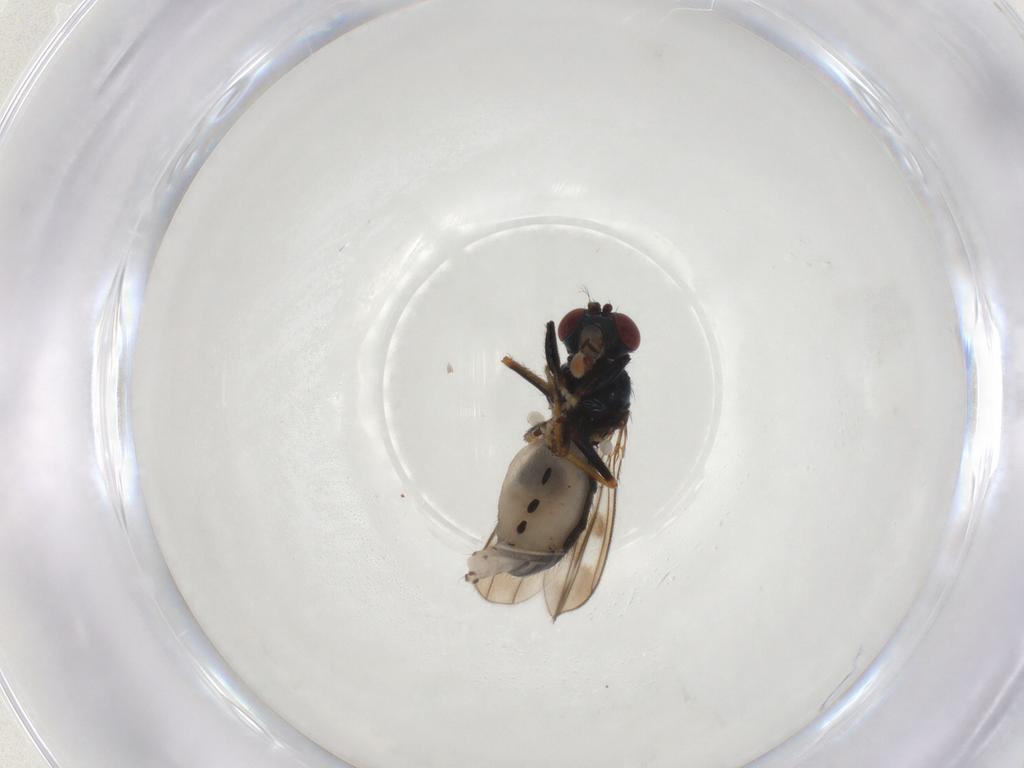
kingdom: Animalia
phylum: Arthropoda
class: Insecta
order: Diptera
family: Ephydridae
